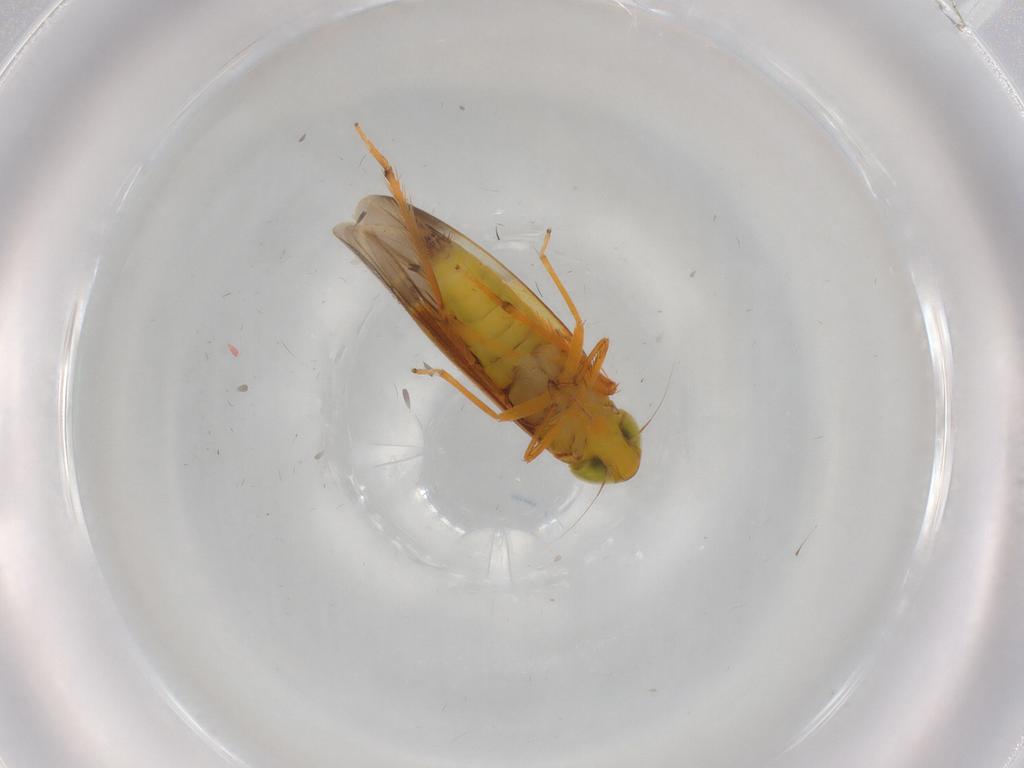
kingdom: Animalia
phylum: Arthropoda
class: Insecta
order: Hemiptera
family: Cicadellidae
